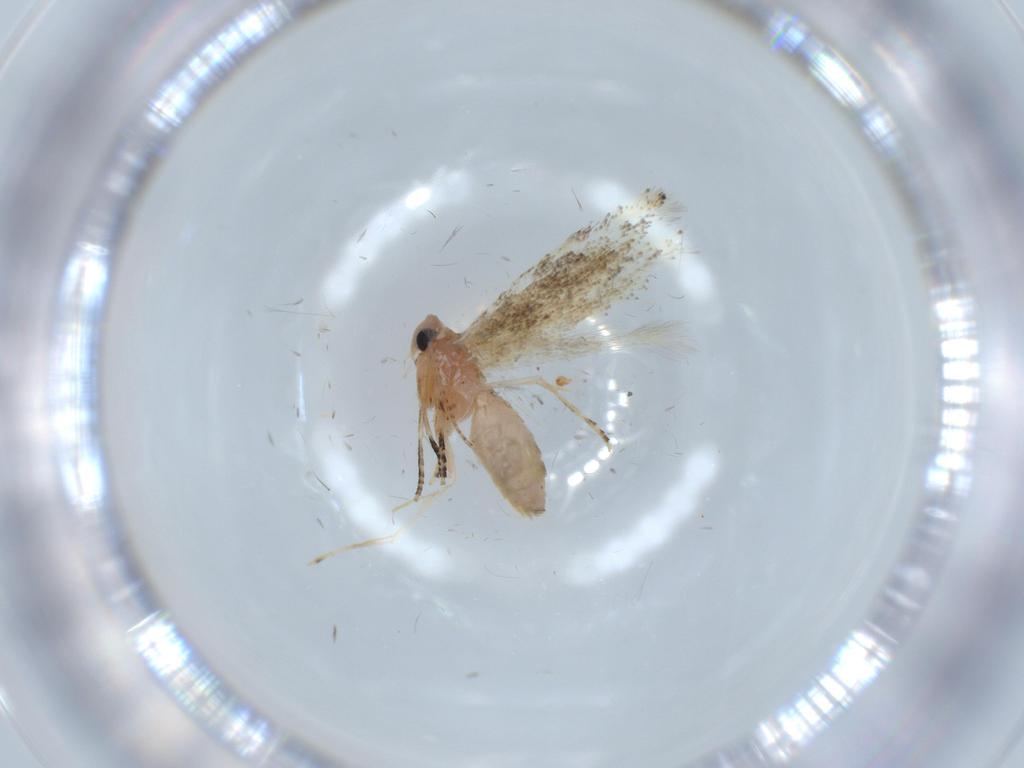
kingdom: Animalia
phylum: Arthropoda
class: Insecta
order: Lepidoptera
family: Bucculatricidae
